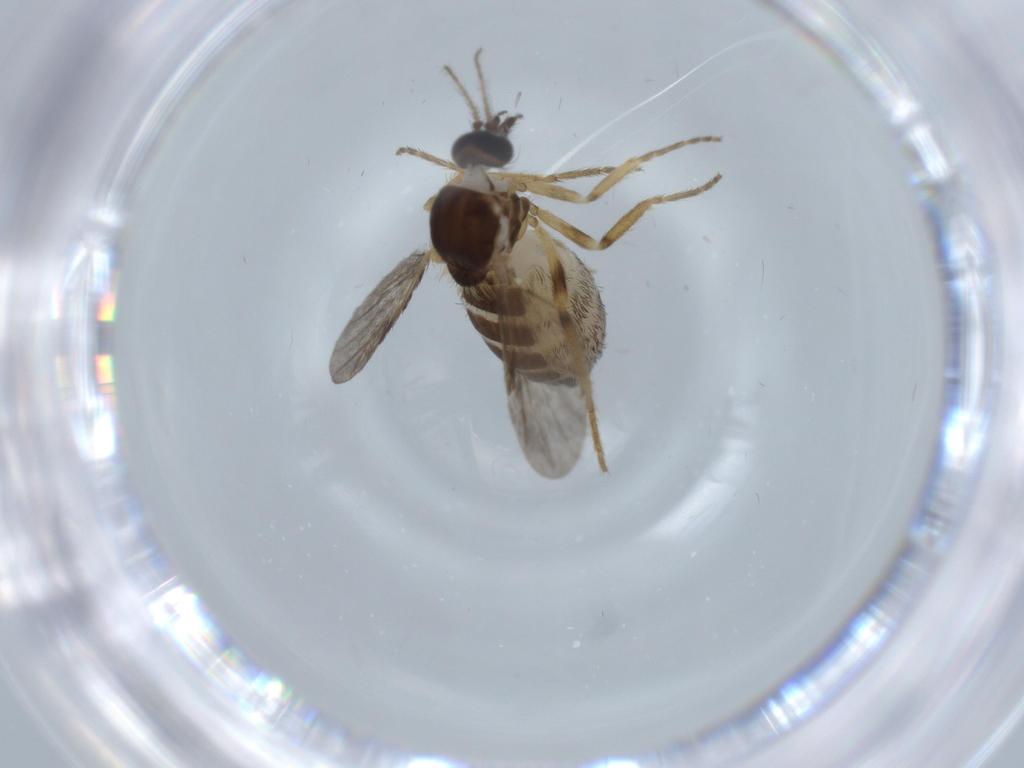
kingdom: Animalia
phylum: Arthropoda
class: Insecta
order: Diptera
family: Ceratopogonidae
